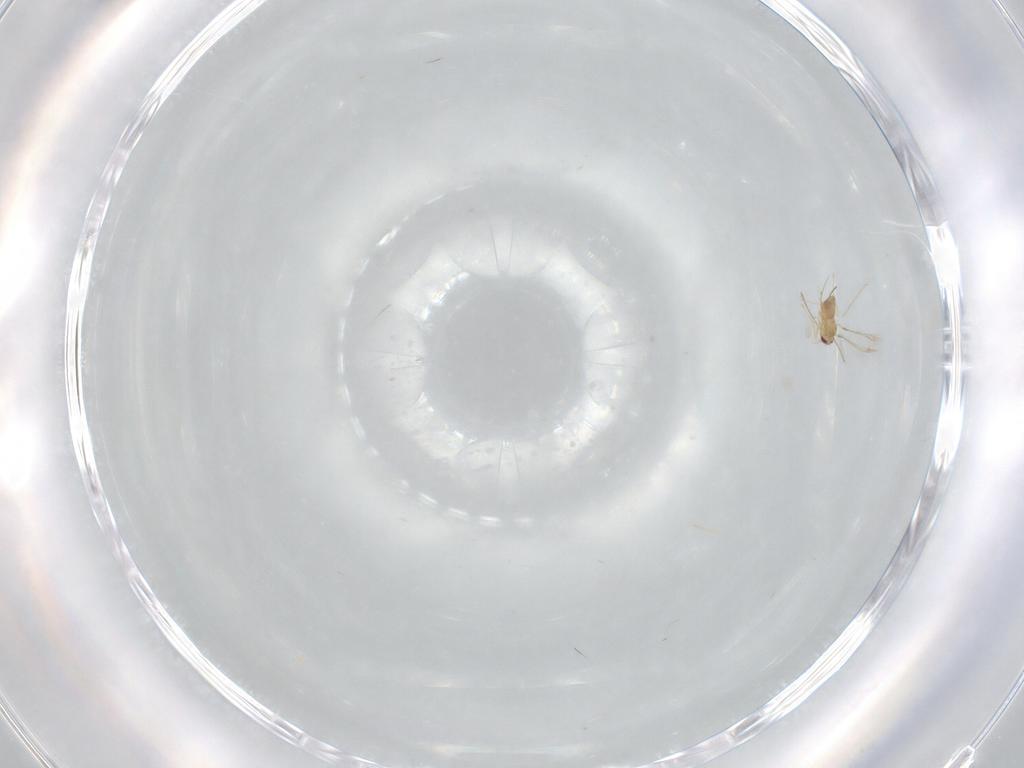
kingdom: Animalia
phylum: Arthropoda
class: Insecta
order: Hymenoptera
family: Mymaridae
